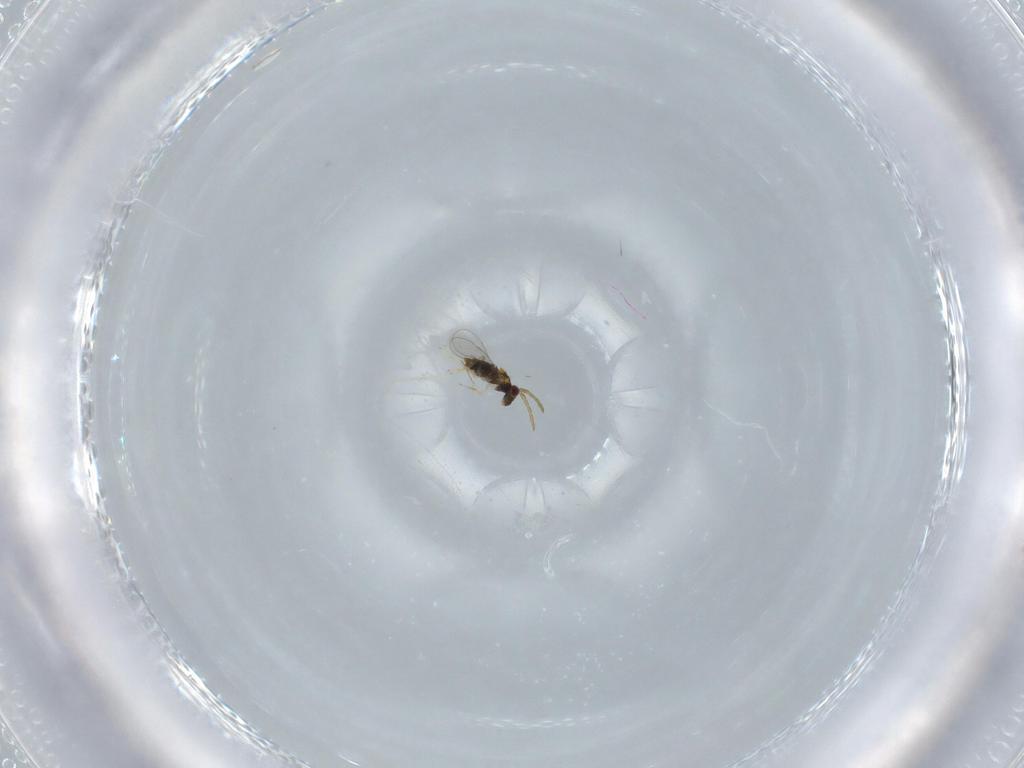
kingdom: Animalia
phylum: Arthropoda
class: Insecta
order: Hymenoptera
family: Aphelinidae
